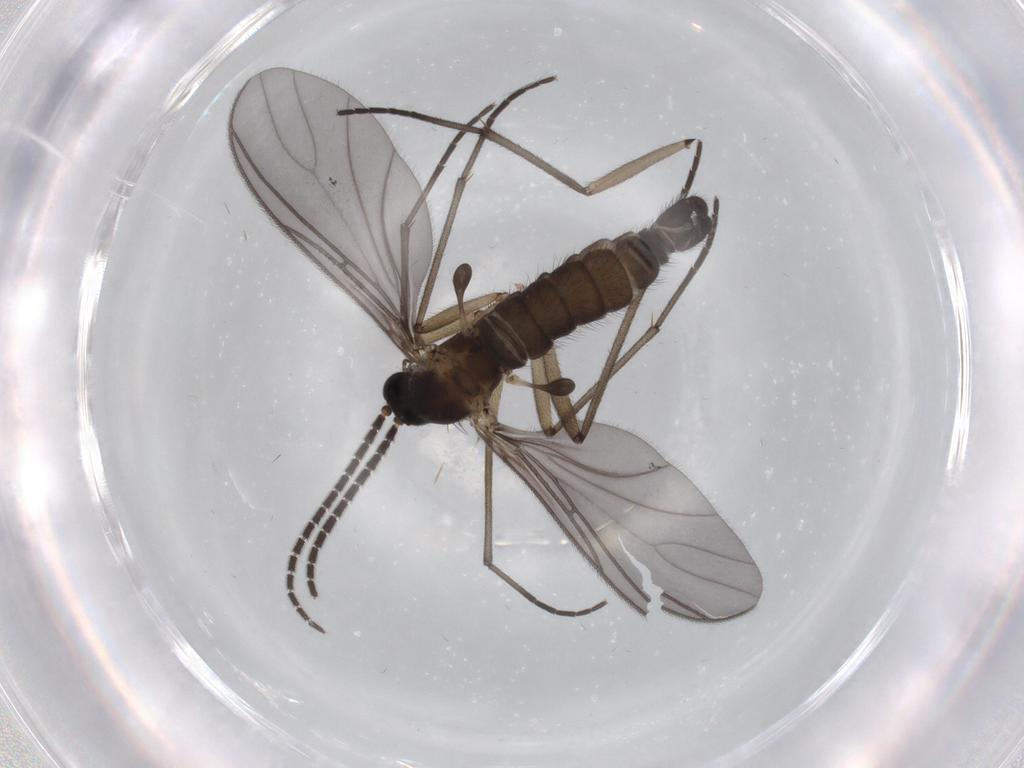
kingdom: Animalia
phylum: Arthropoda
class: Insecta
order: Diptera
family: Sciaridae
